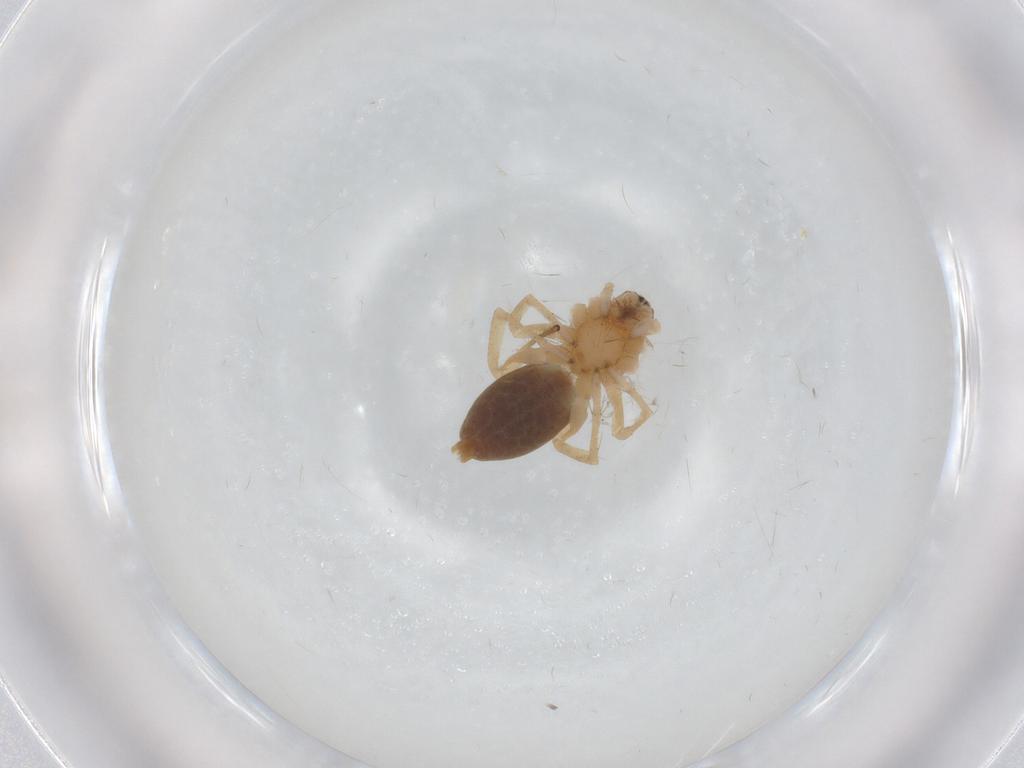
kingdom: Animalia
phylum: Arthropoda
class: Arachnida
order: Araneae
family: Clubionidae
